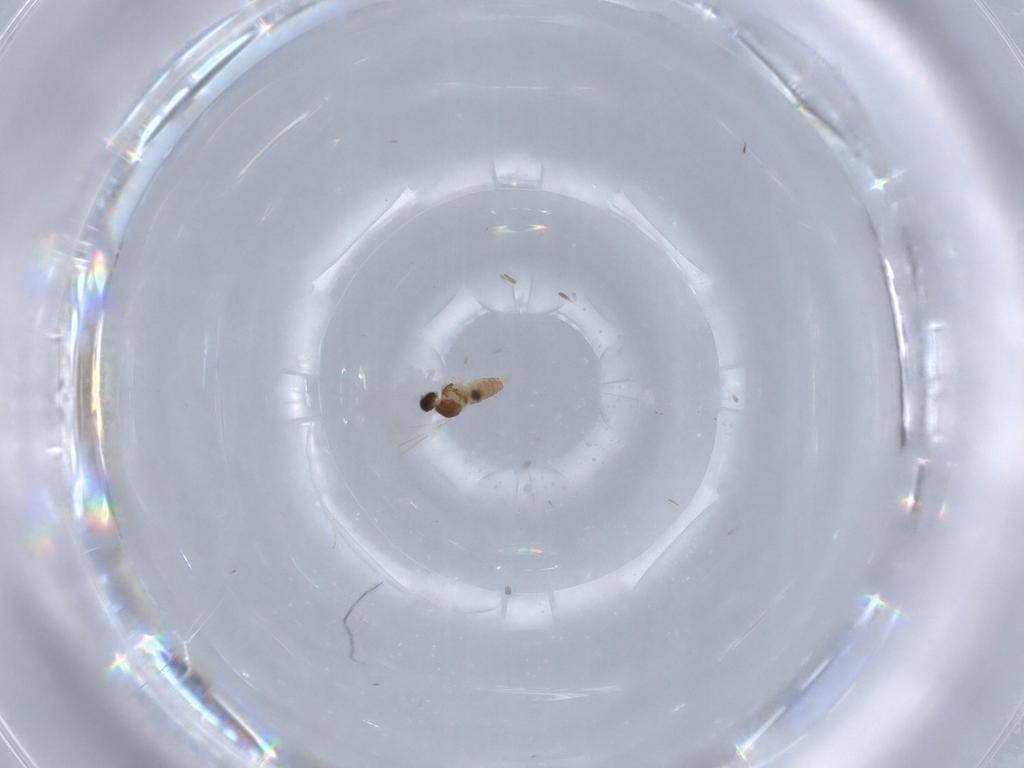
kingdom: Animalia
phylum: Arthropoda
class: Insecta
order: Diptera
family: Cecidomyiidae
